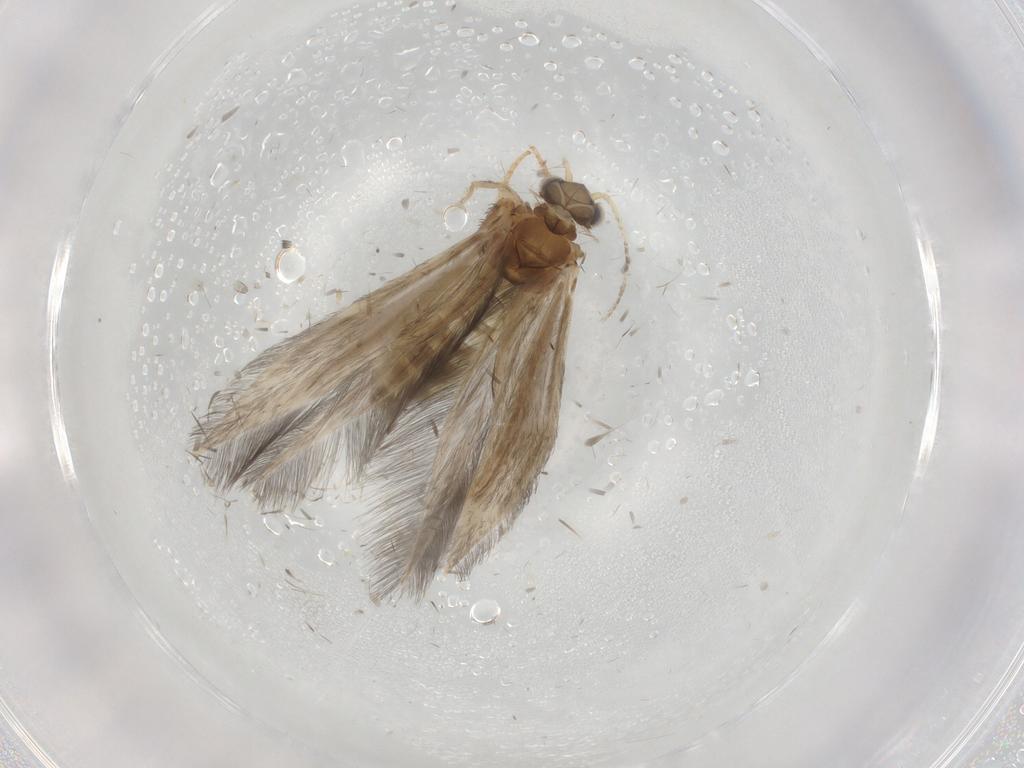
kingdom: Animalia
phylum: Arthropoda
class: Insecta
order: Trichoptera
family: Hydroptilidae
